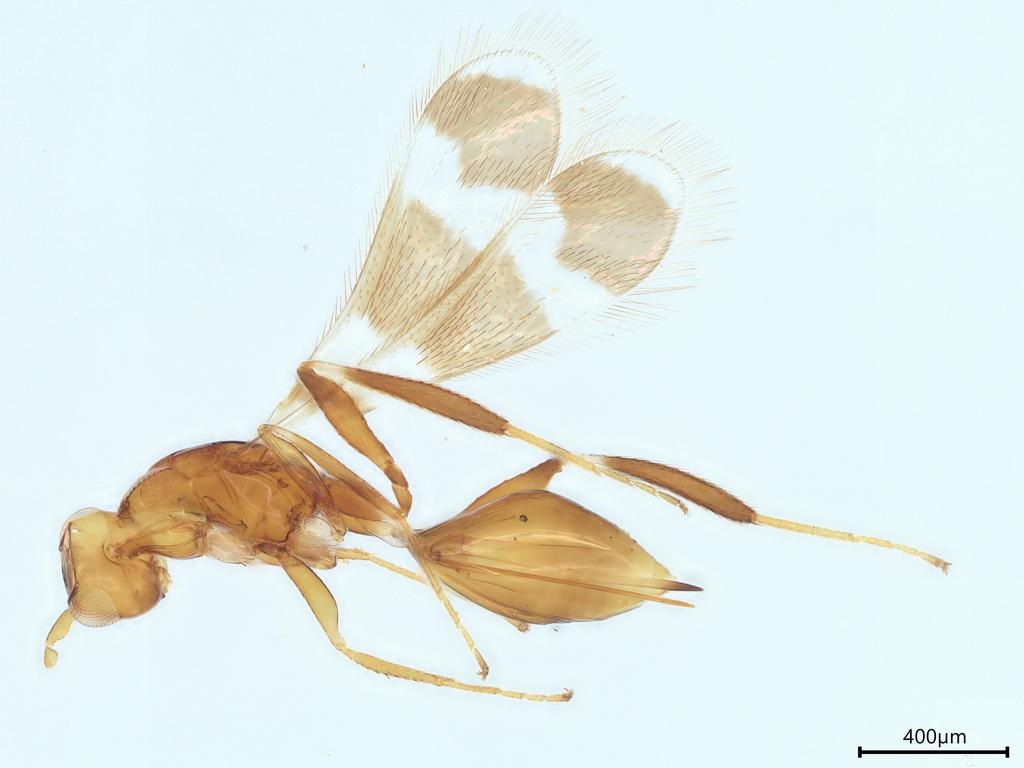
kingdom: Animalia
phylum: Arthropoda
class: Insecta
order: Hymenoptera
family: Mymaridae
